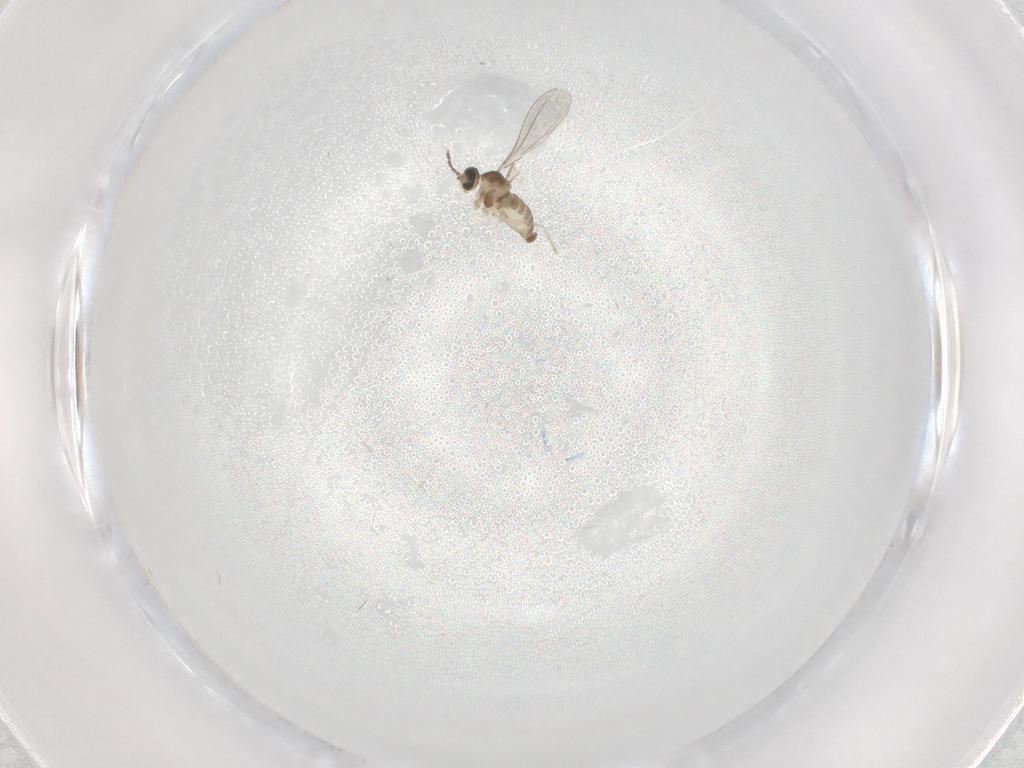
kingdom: Animalia
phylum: Arthropoda
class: Insecta
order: Diptera
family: Cecidomyiidae
